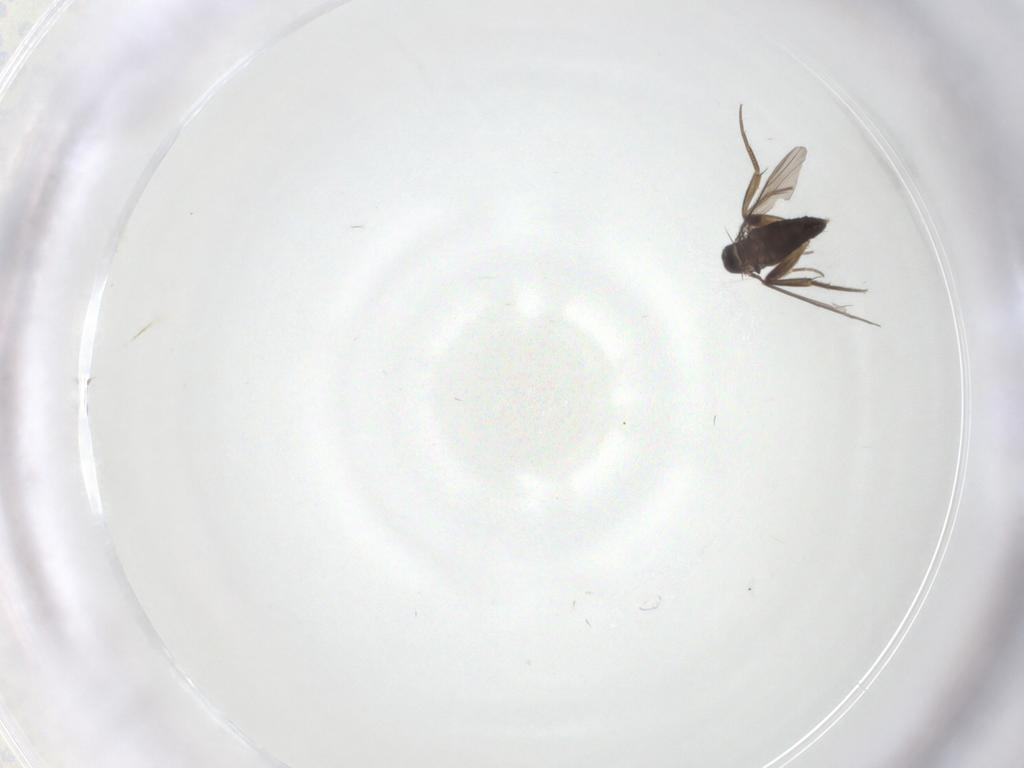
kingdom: Animalia
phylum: Arthropoda
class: Insecta
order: Diptera
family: Phoridae
